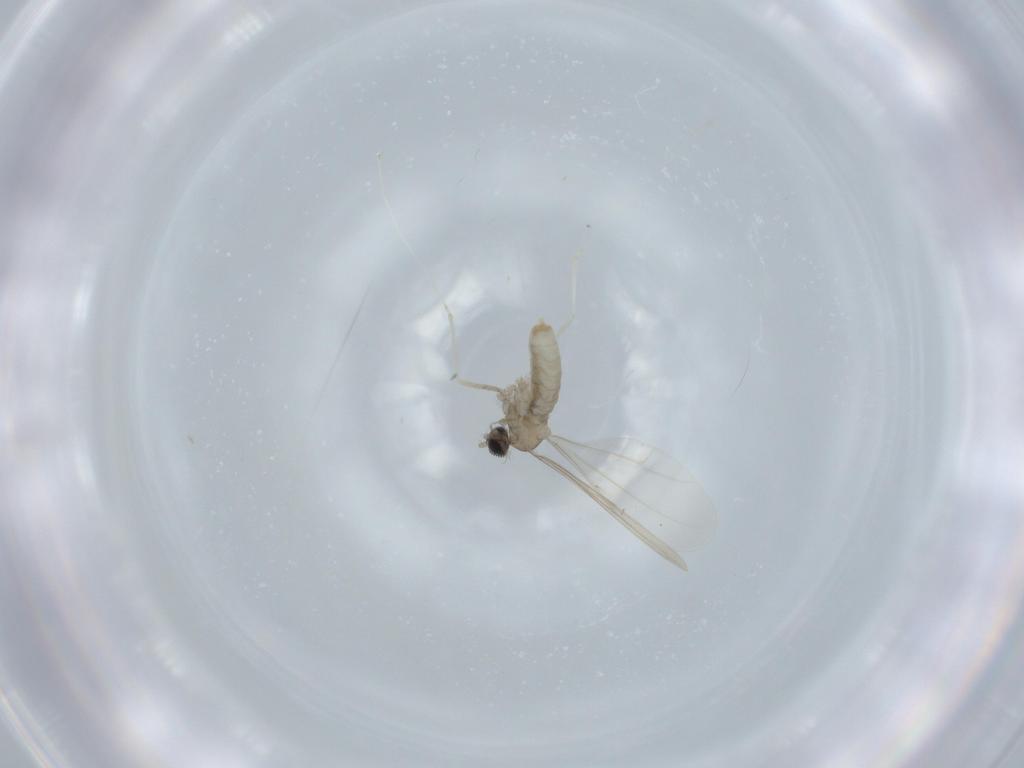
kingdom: Animalia
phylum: Arthropoda
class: Insecta
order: Diptera
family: Cecidomyiidae
